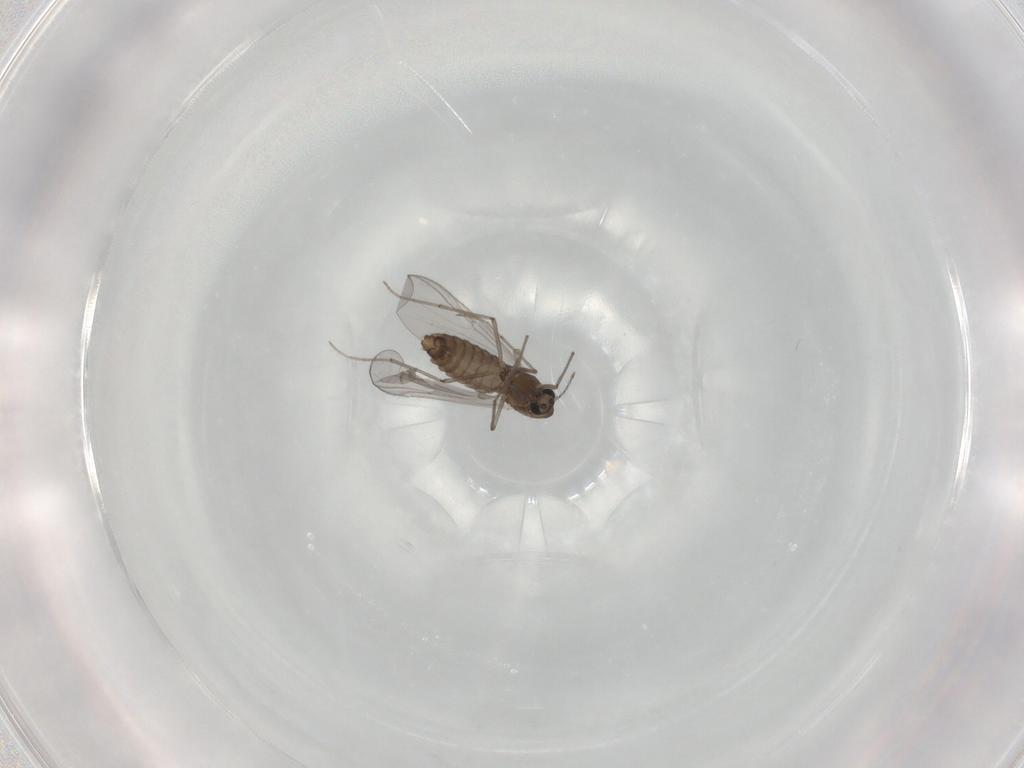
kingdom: Animalia
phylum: Arthropoda
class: Insecta
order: Diptera
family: Chironomidae
